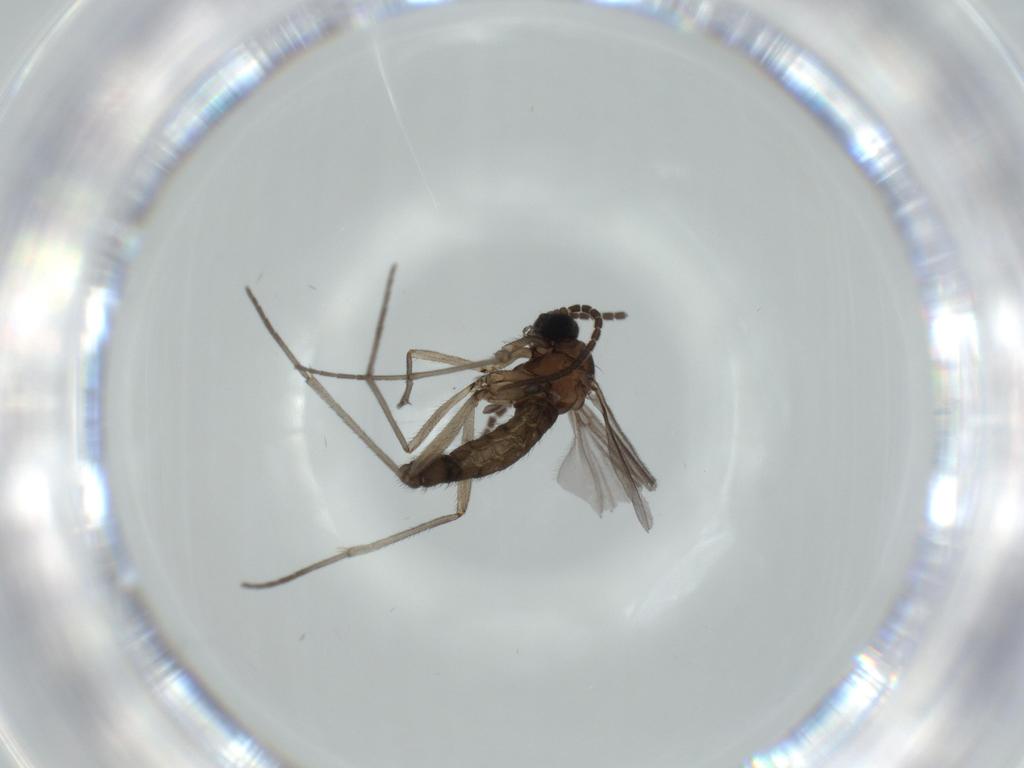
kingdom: Animalia
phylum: Arthropoda
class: Insecta
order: Diptera
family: Sciaridae
